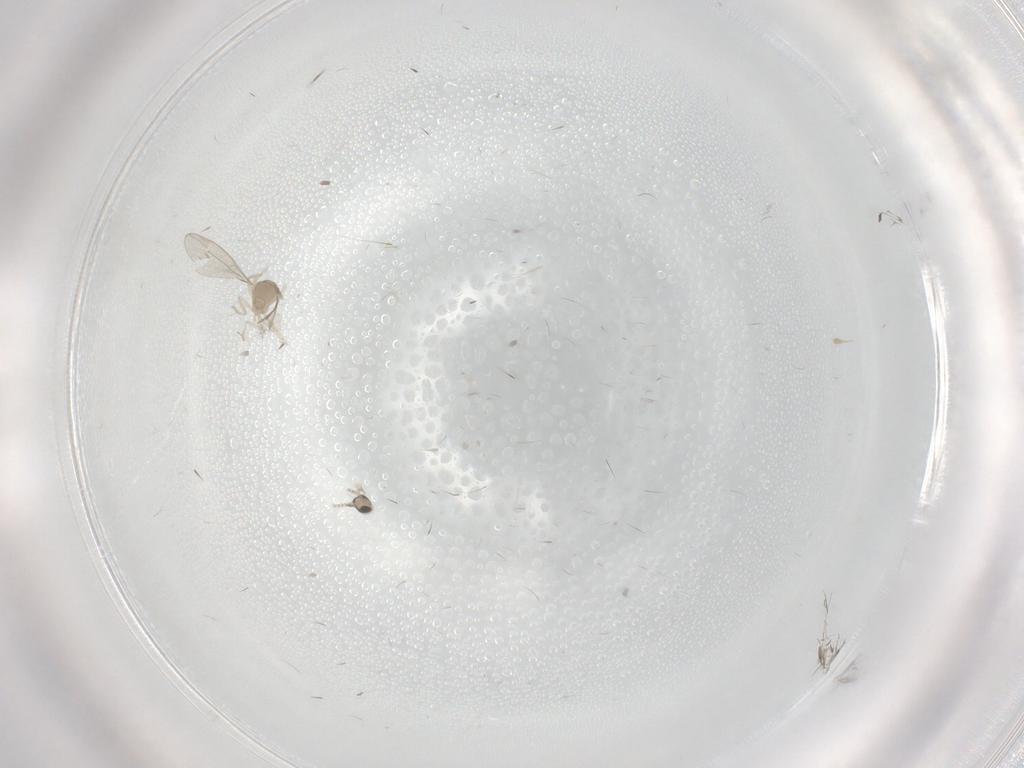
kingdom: Animalia
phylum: Arthropoda
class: Insecta
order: Diptera
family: Cecidomyiidae
